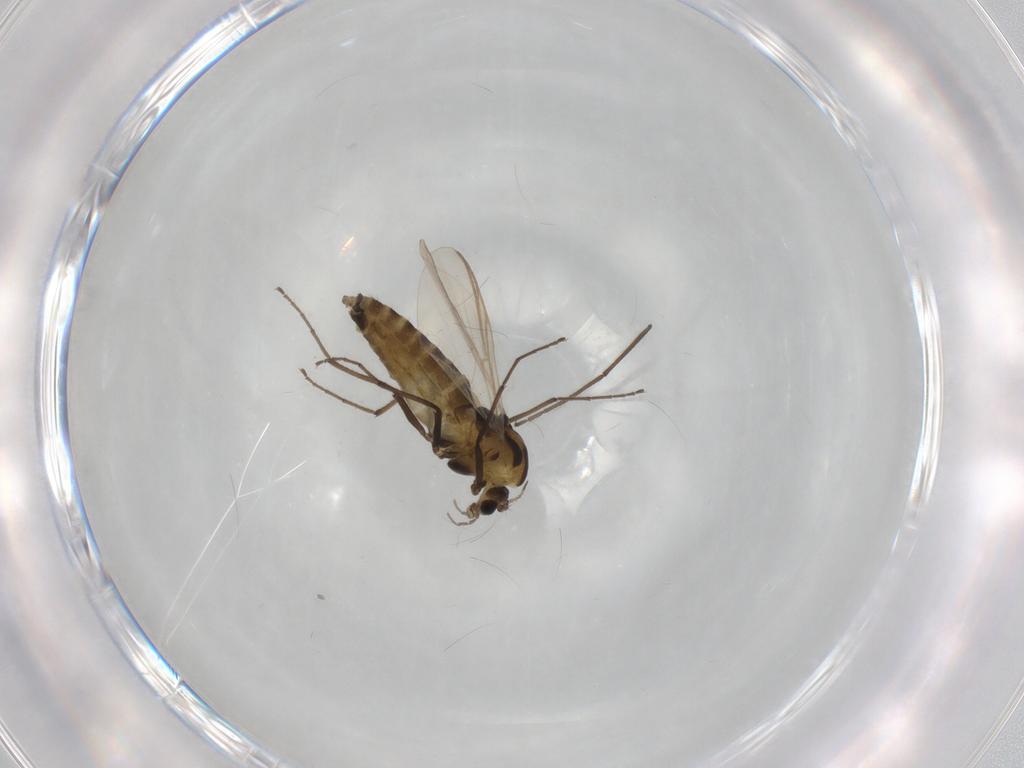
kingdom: Animalia
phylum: Arthropoda
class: Insecta
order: Diptera
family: Chironomidae
